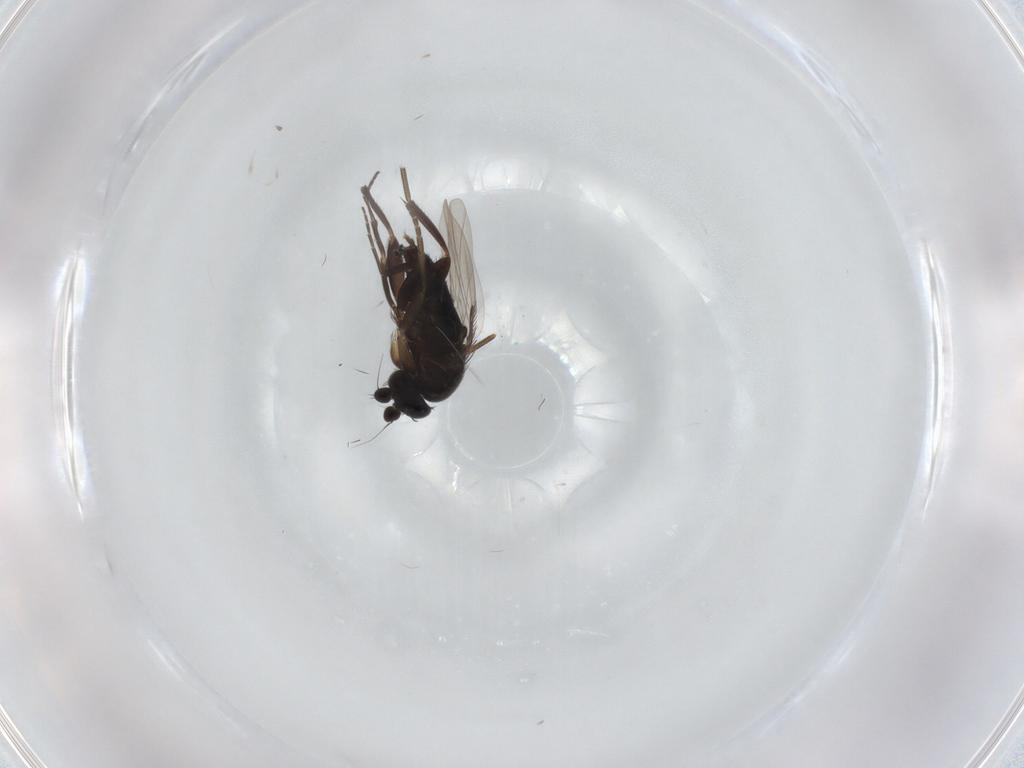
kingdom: Animalia
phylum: Arthropoda
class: Insecta
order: Diptera
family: Phoridae
